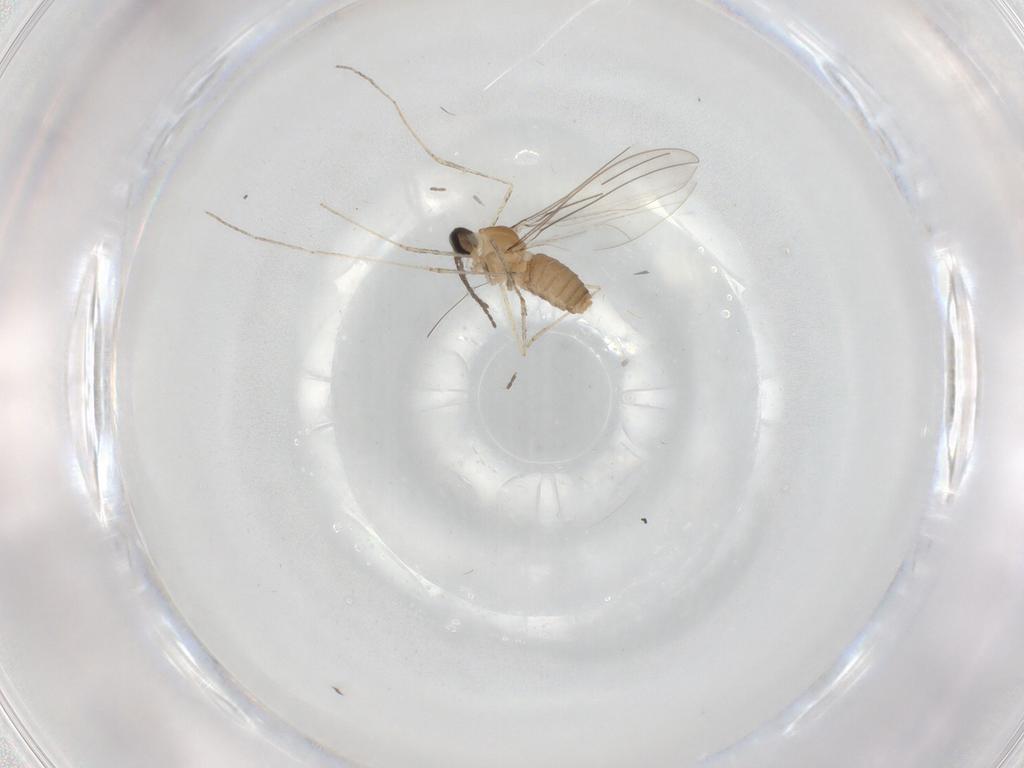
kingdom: Animalia
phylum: Arthropoda
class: Insecta
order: Diptera
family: Cecidomyiidae
